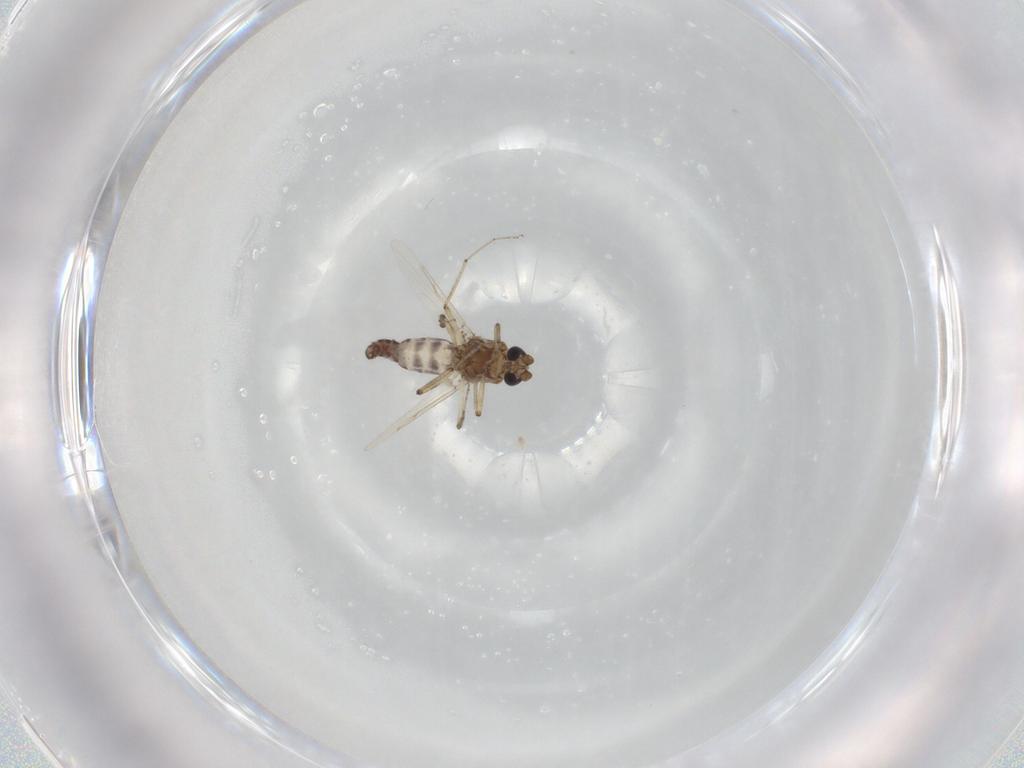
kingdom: Animalia
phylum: Arthropoda
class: Insecta
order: Diptera
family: Ceratopogonidae
